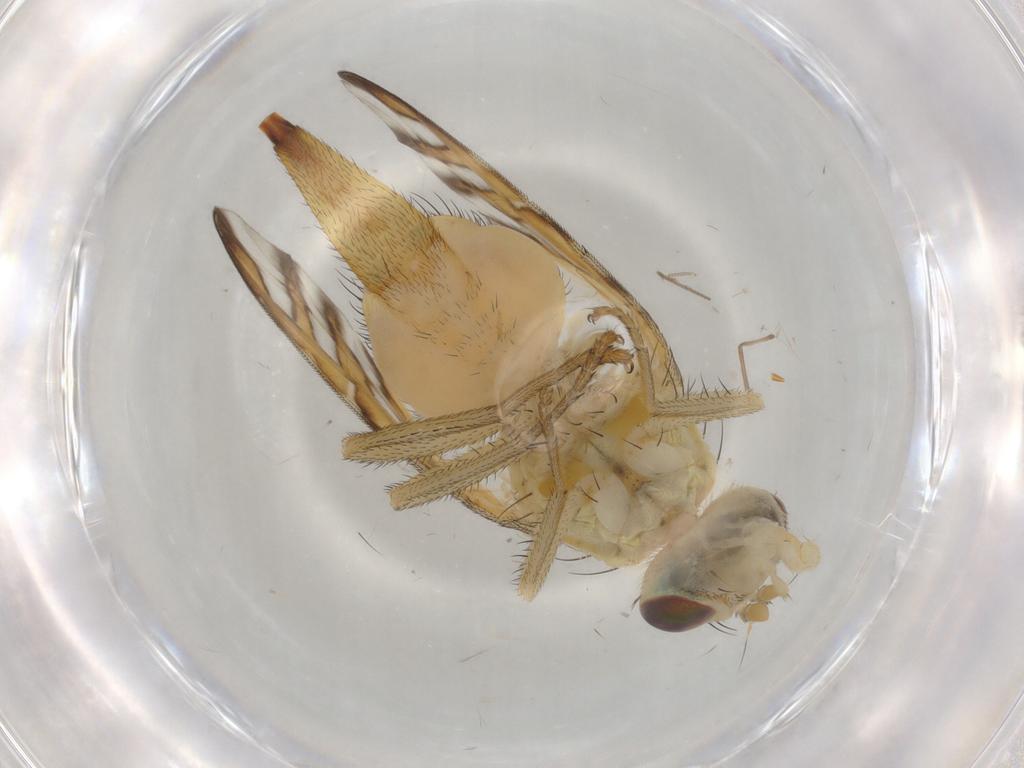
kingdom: Animalia
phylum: Arthropoda
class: Insecta
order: Diptera
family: Tephritidae
